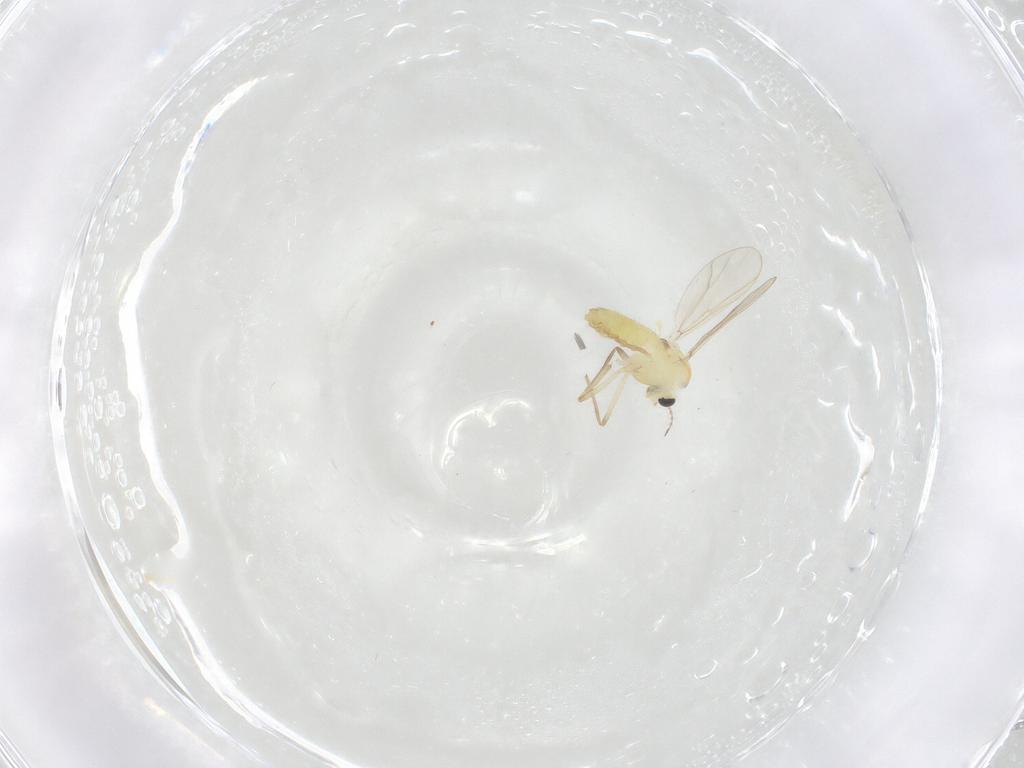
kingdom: Animalia
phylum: Arthropoda
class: Insecta
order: Diptera
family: Chironomidae
